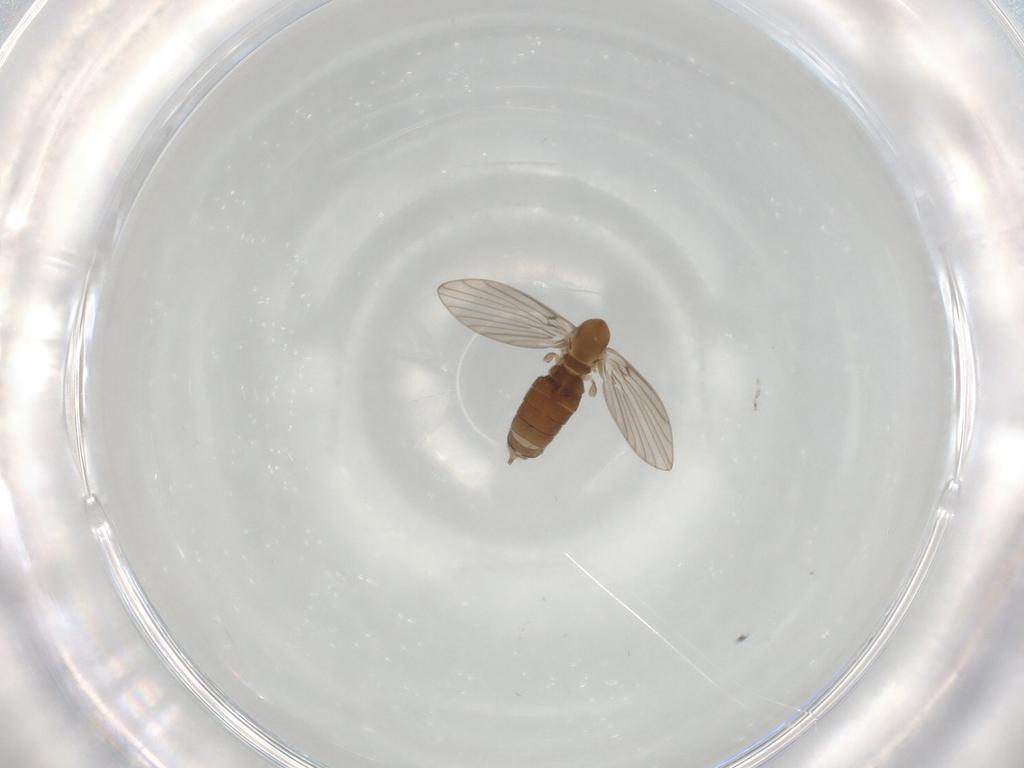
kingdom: Animalia
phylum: Arthropoda
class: Insecta
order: Diptera
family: Psychodidae
